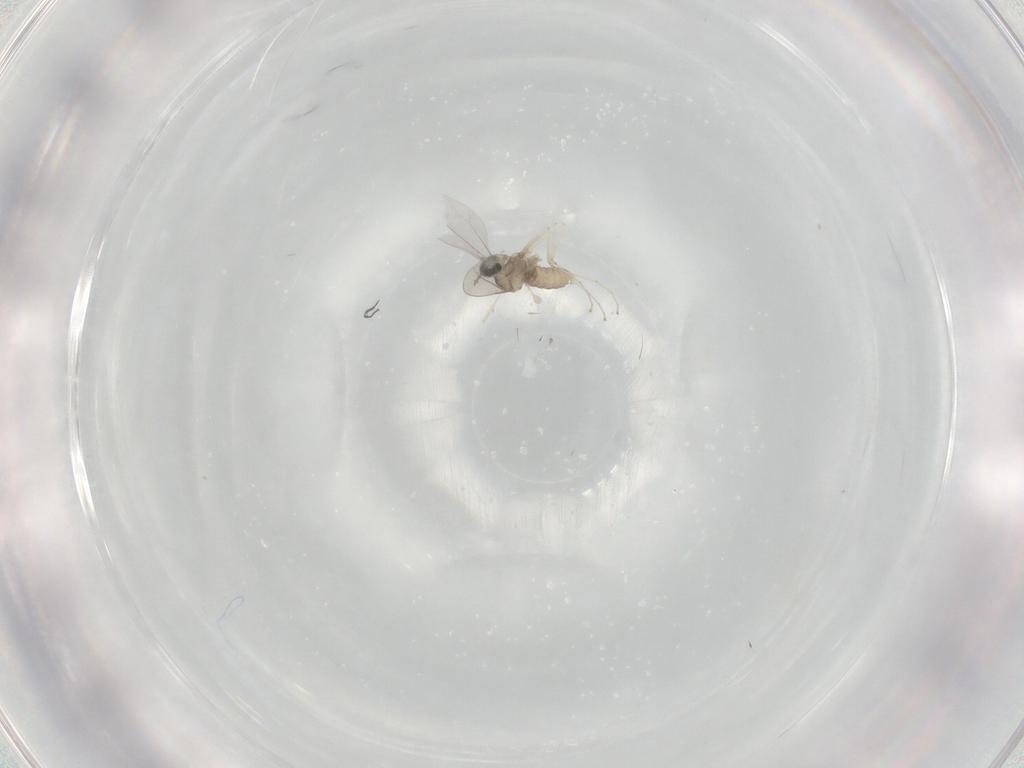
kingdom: Animalia
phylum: Arthropoda
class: Insecta
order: Diptera
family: Cecidomyiidae
